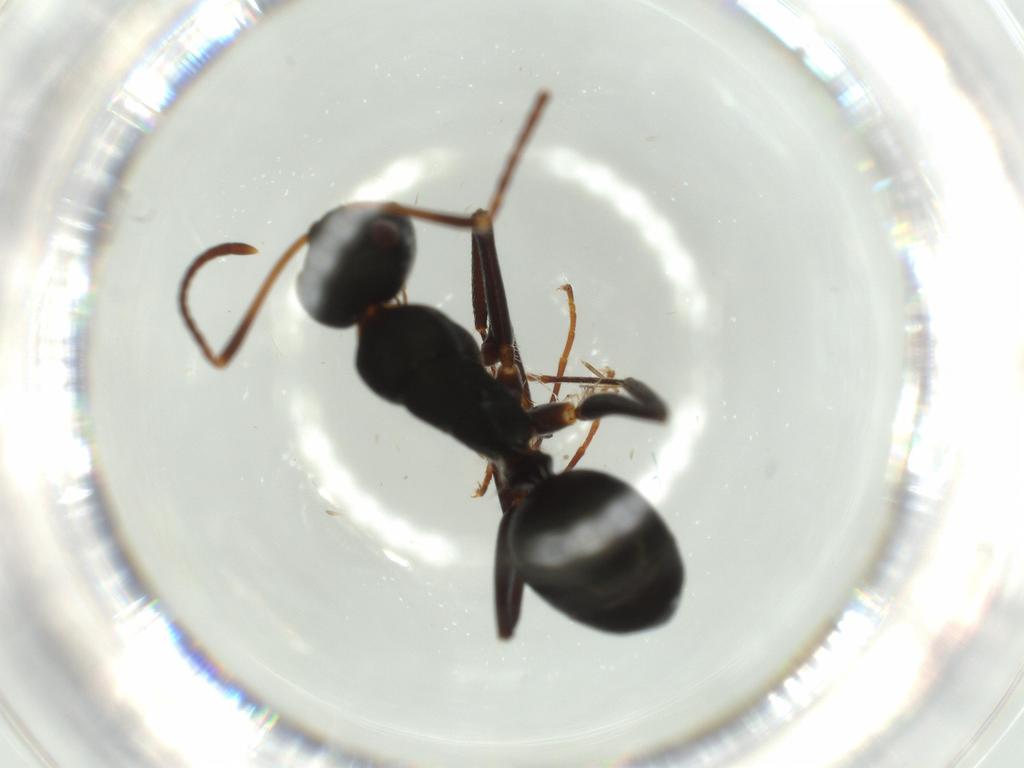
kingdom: Animalia
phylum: Arthropoda
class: Insecta
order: Hymenoptera
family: Formicidae
